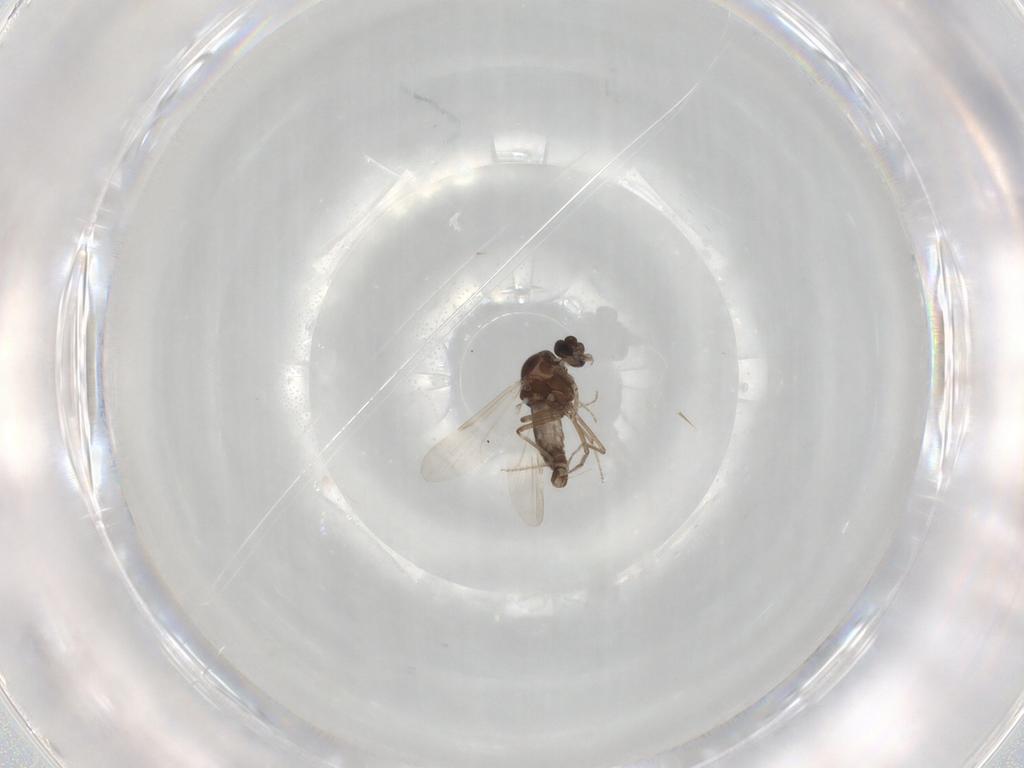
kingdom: Animalia
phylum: Arthropoda
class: Insecta
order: Diptera
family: Ceratopogonidae
